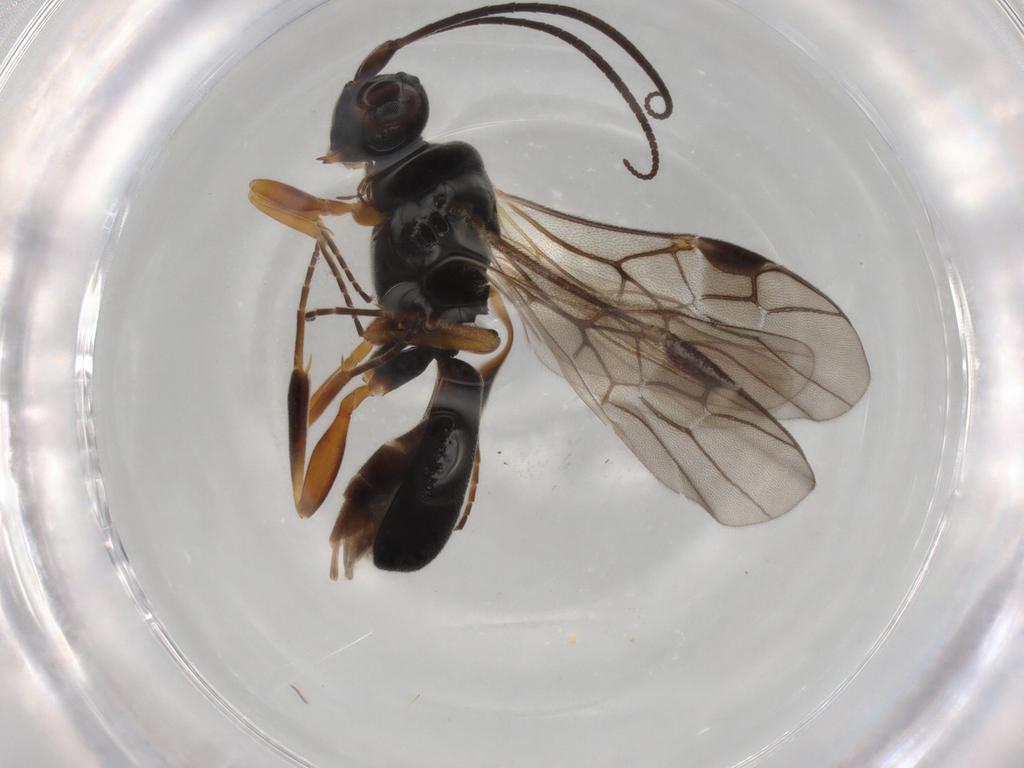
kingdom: Animalia
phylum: Arthropoda
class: Insecta
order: Hymenoptera
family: Braconidae
